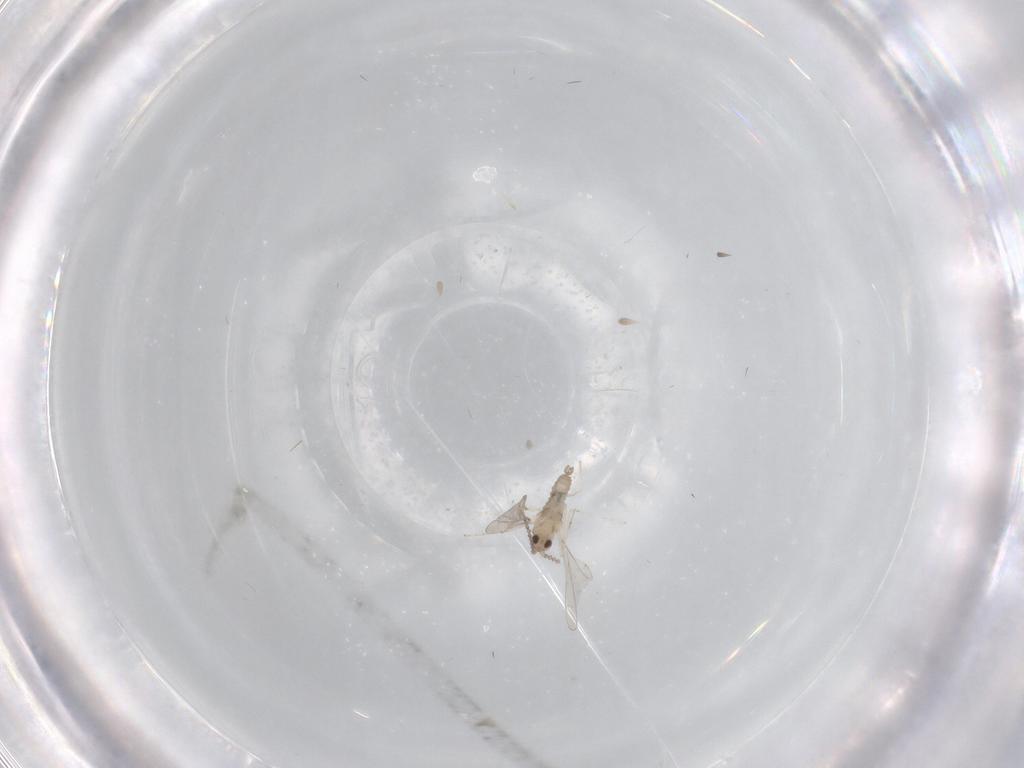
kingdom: Animalia
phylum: Arthropoda
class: Insecta
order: Diptera
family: Cecidomyiidae
